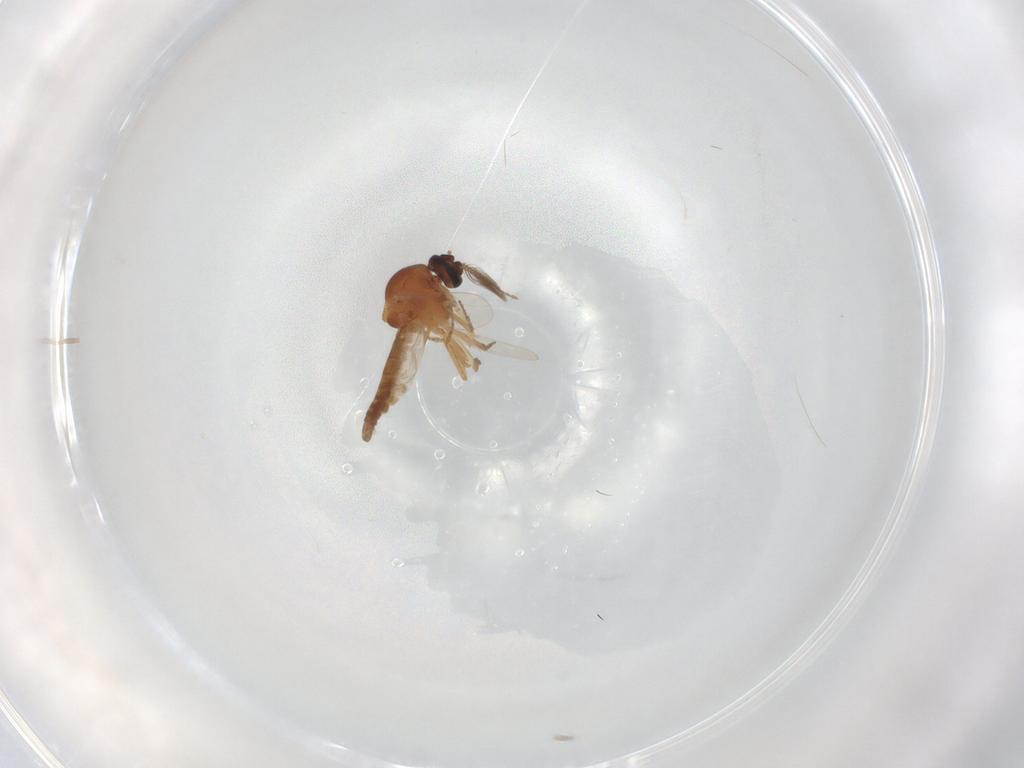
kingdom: Animalia
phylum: Arthropoda
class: Insecta
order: Diptera
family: Ceratopogonidae
